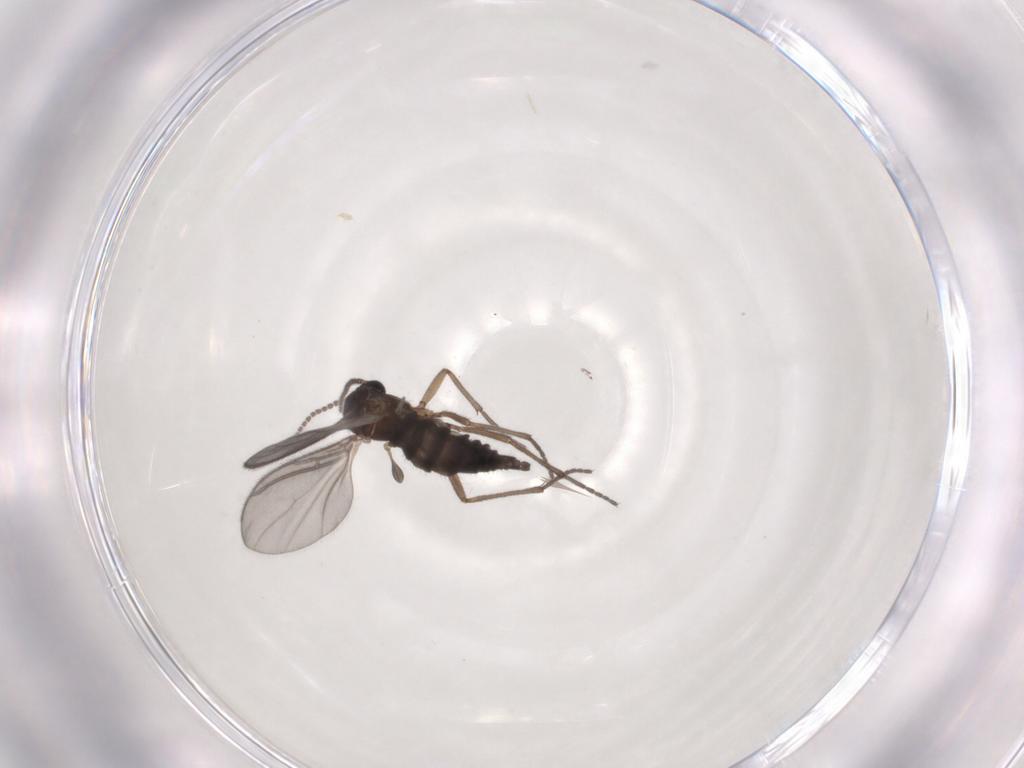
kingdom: Animalia
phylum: Arthropoda
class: Insecta
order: Diptera
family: Sciaridae
